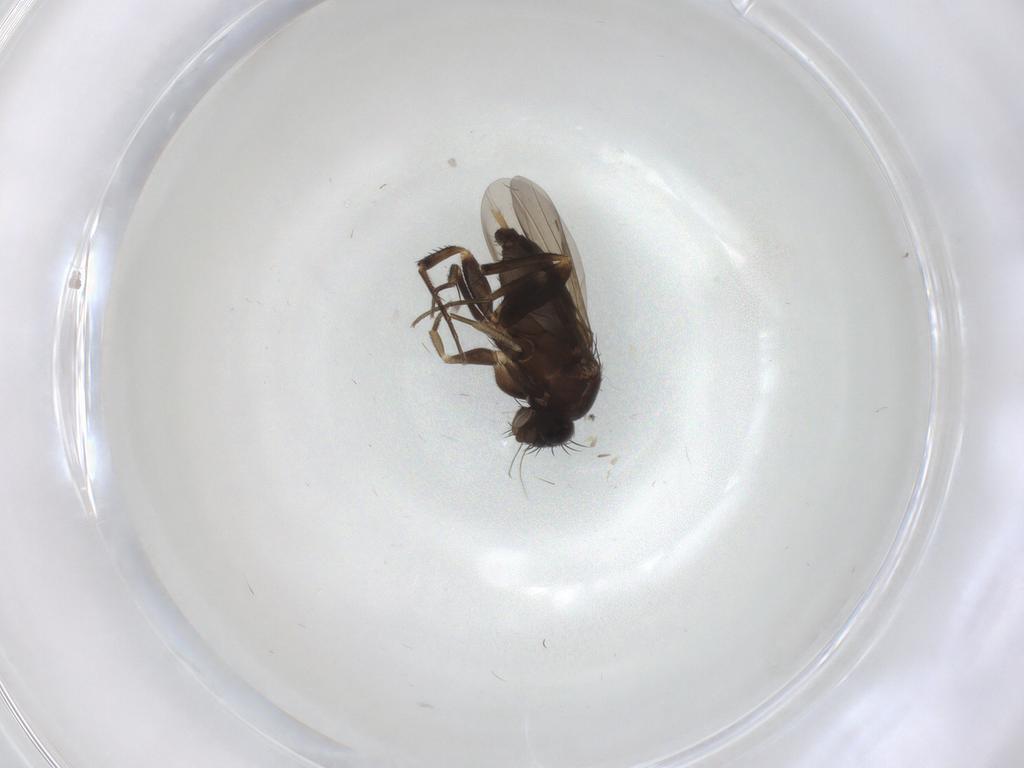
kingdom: Animalia
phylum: Arthropoda
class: Insecta
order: Diptera
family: Phoridae
